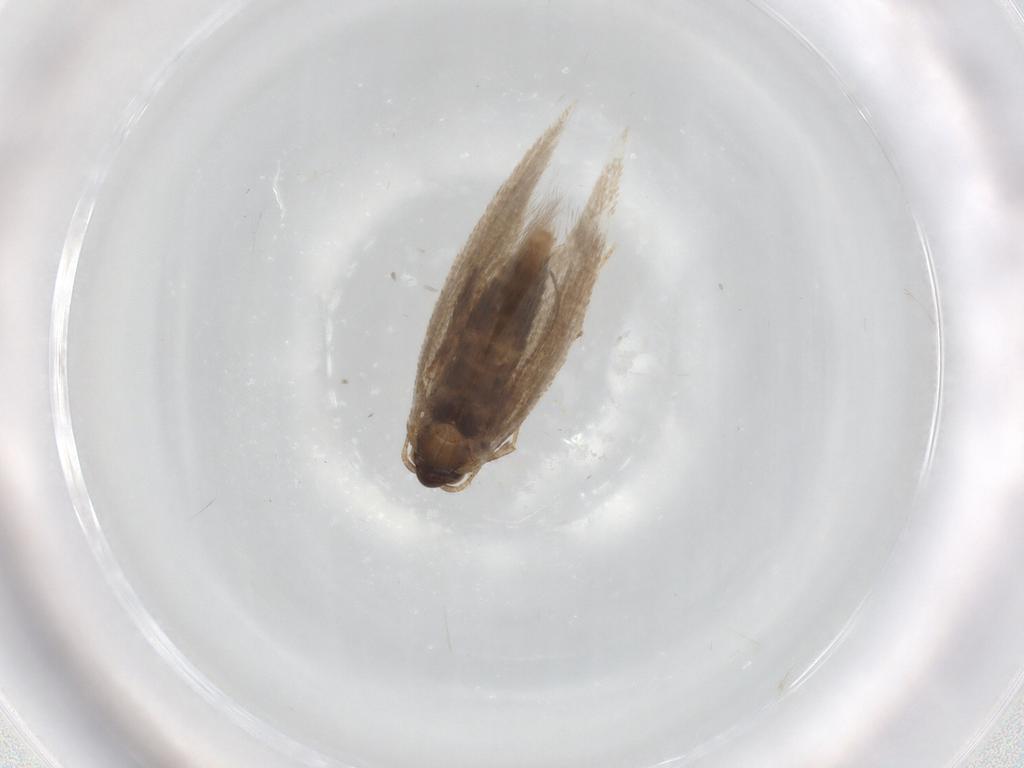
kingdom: Animalia
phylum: Arthropoda
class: Insecta
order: Lepidoptera
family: Nepticulidae
